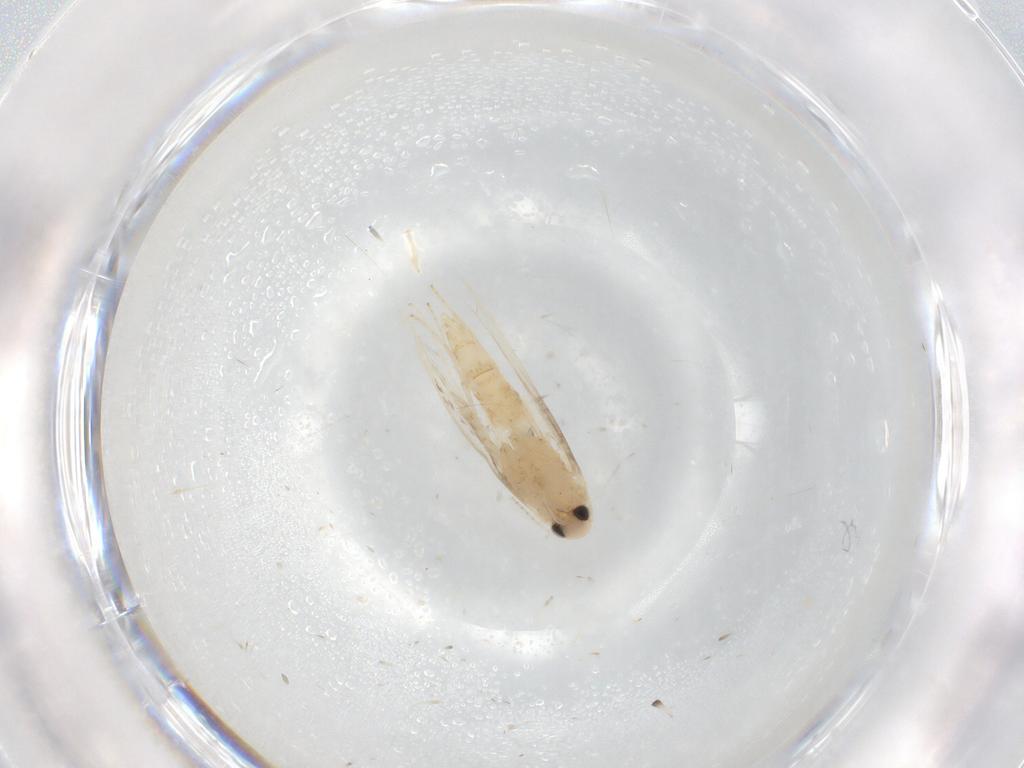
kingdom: Animalia
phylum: Arthropoda
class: Insecta
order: Lepidoptera
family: Gracillariidae
